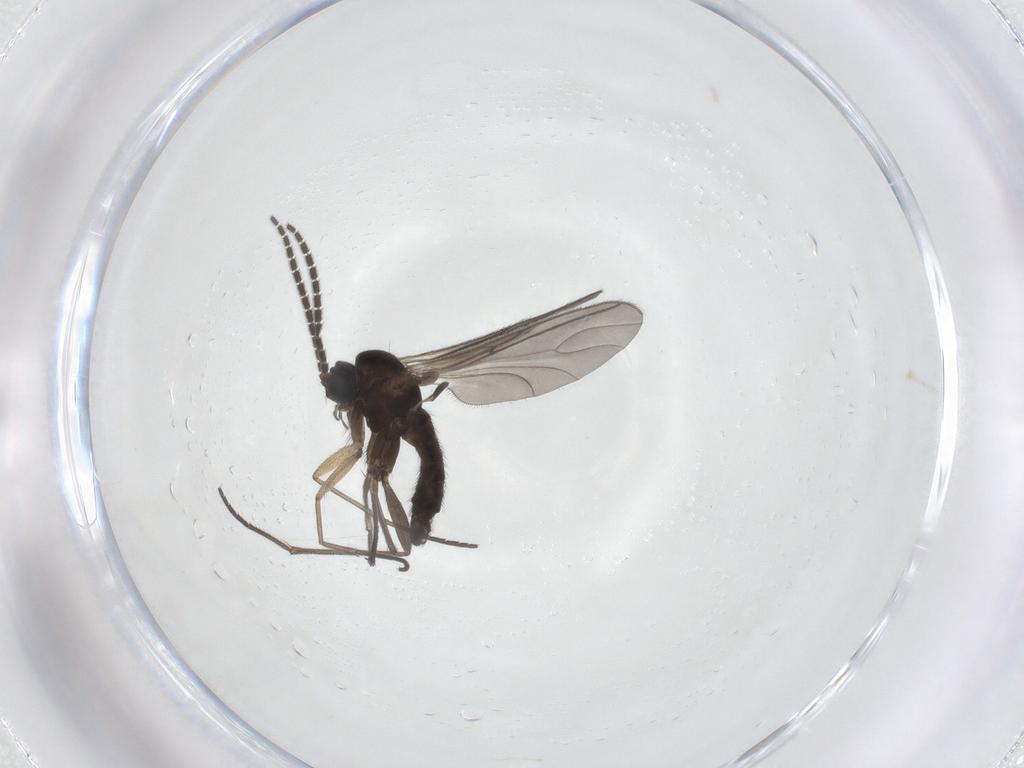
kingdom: Animalia
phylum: Arthropoda
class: Insecta
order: Diptera
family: Sciaridae
